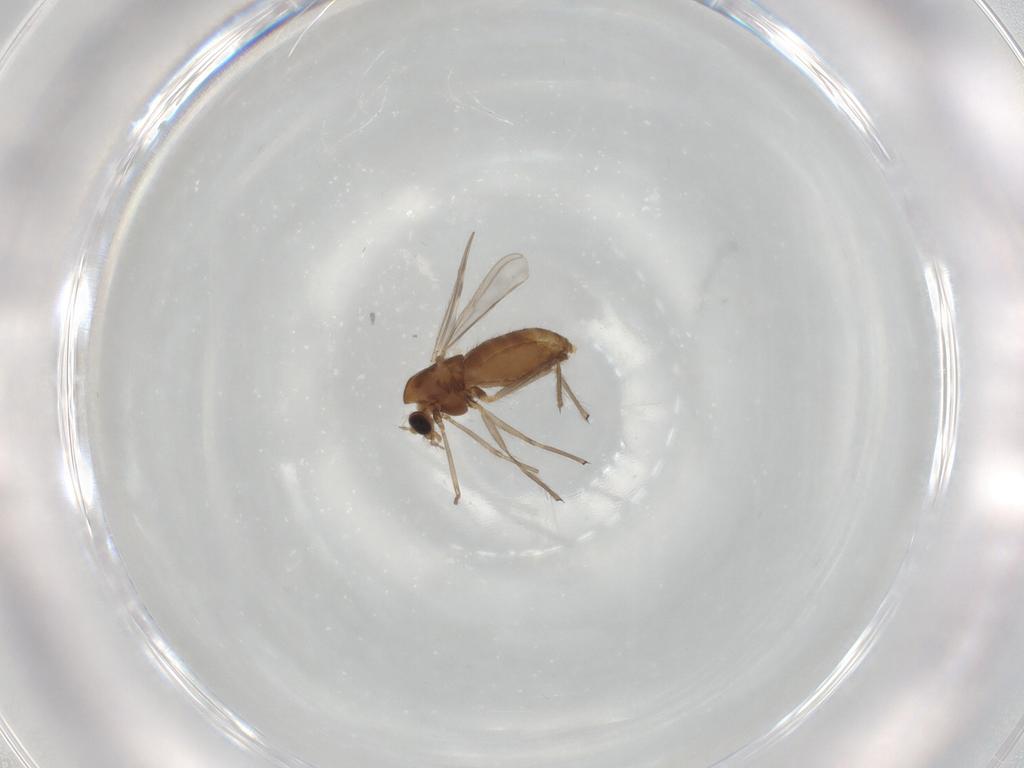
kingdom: Animalia
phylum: Arthropoda
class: Insecta
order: Diptera
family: Chironomidae
